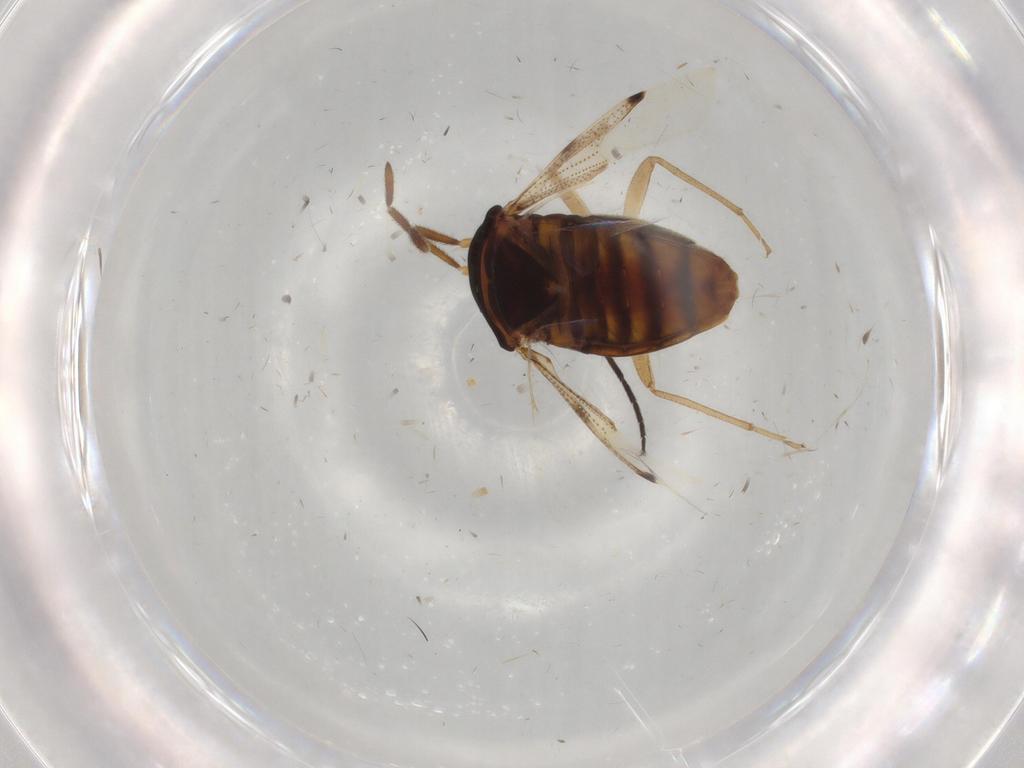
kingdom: Animalia
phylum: Arthropoda
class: Insecta
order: Hemiptera
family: Rhyparochromidae
